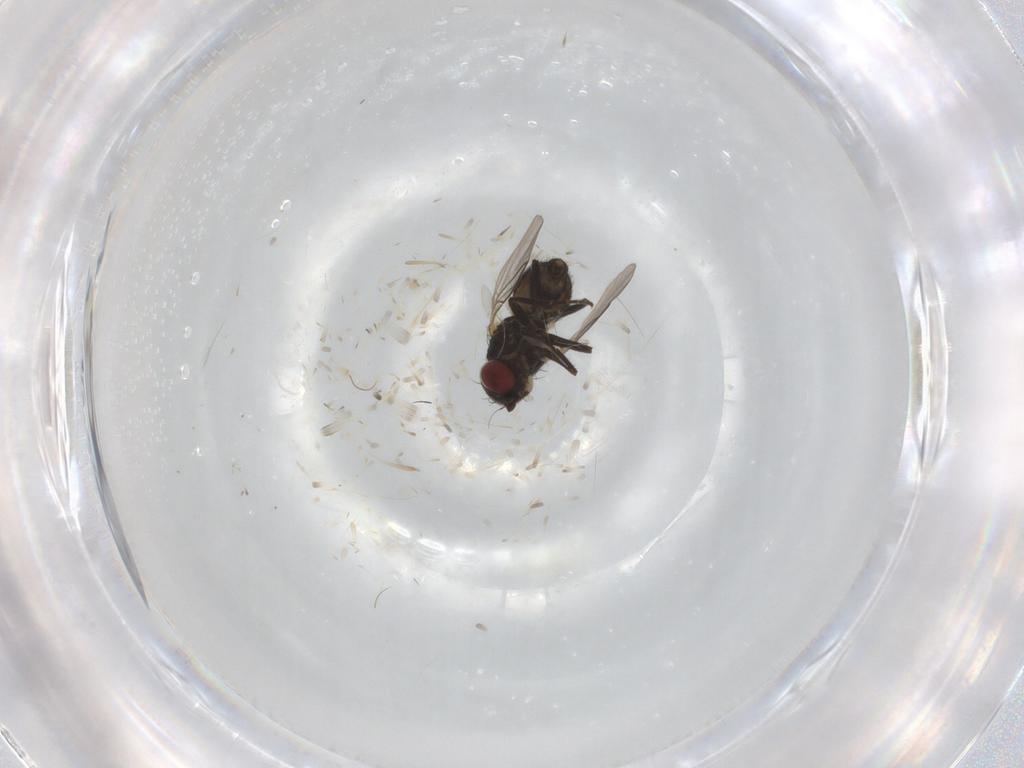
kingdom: Animalia
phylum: Arthropoda
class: Insecta
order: Diptera
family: Agromyzidae
